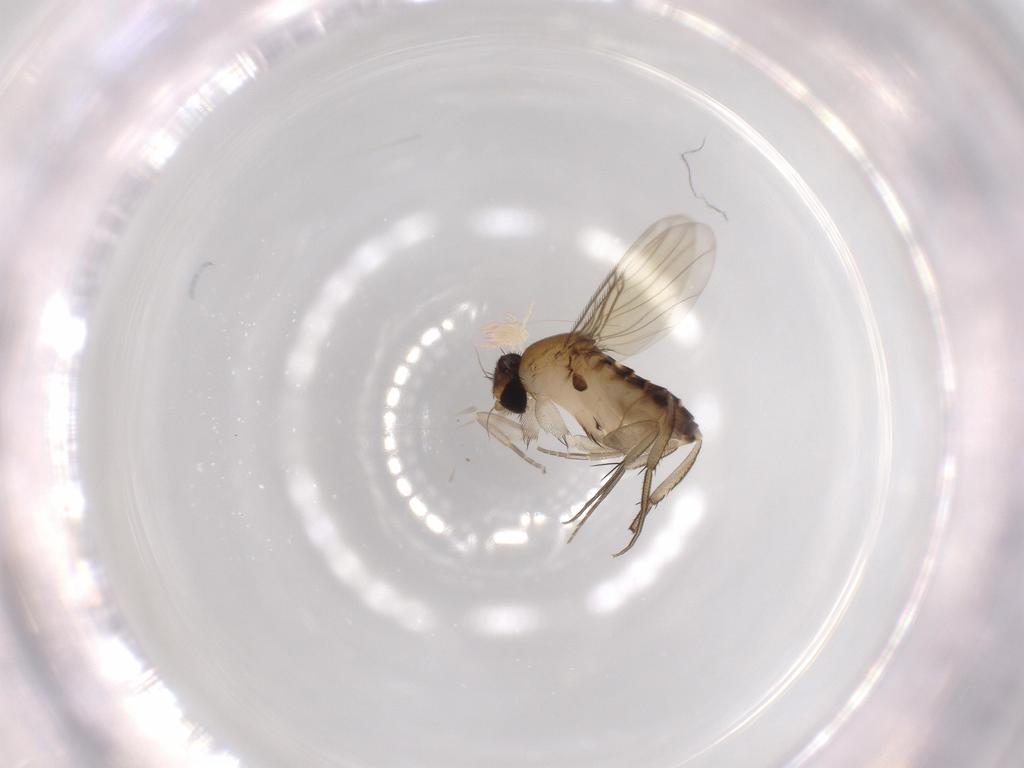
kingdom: Animalia
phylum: Arthropoda
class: Insecta
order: Diptera
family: Phoridae
